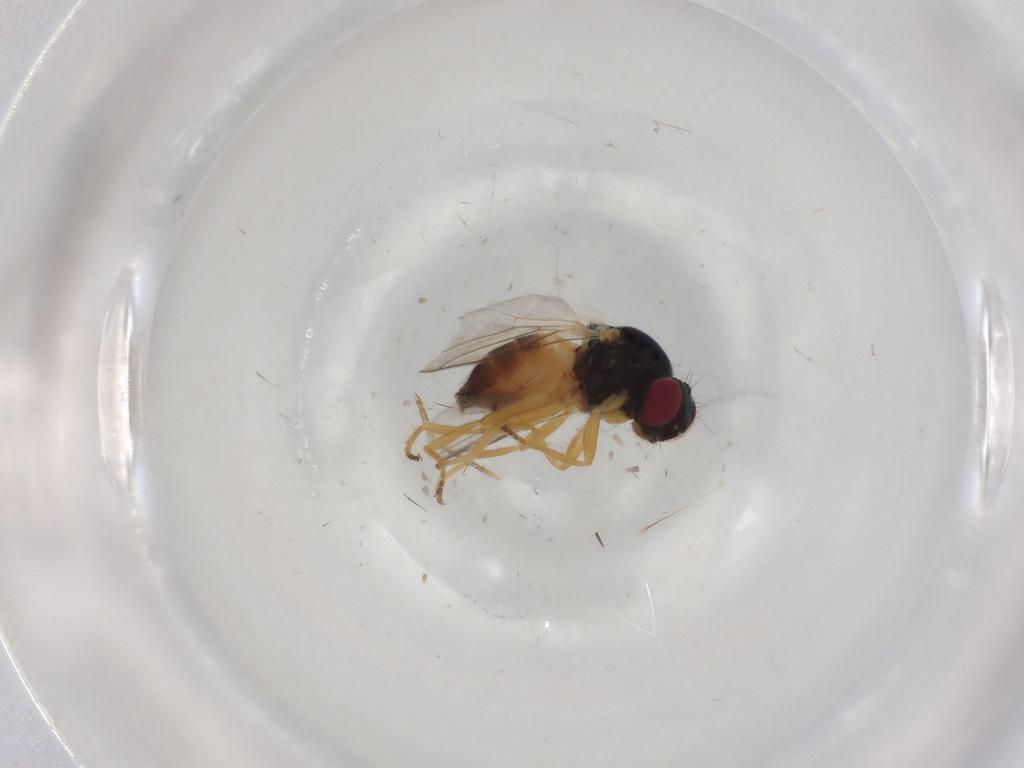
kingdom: Animalia
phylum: Arthropoda
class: Insecta
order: Diptera
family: Chloropidae
